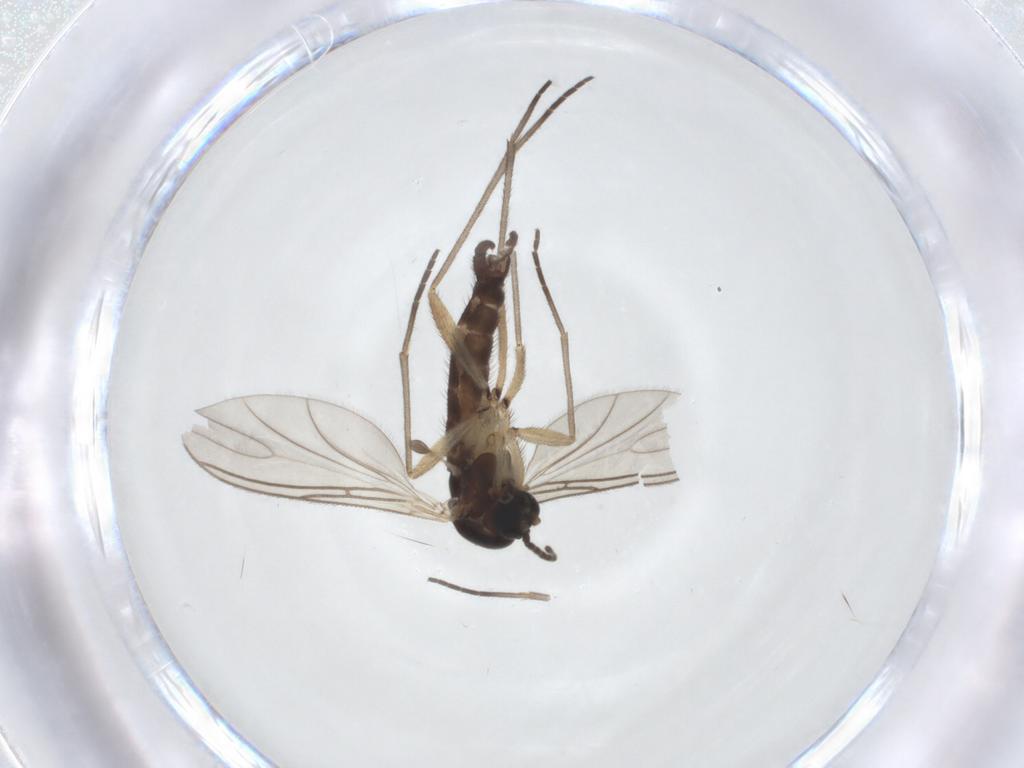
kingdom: Animalia
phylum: Arthropoda
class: Insecta
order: Diptera
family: Sciaridae
